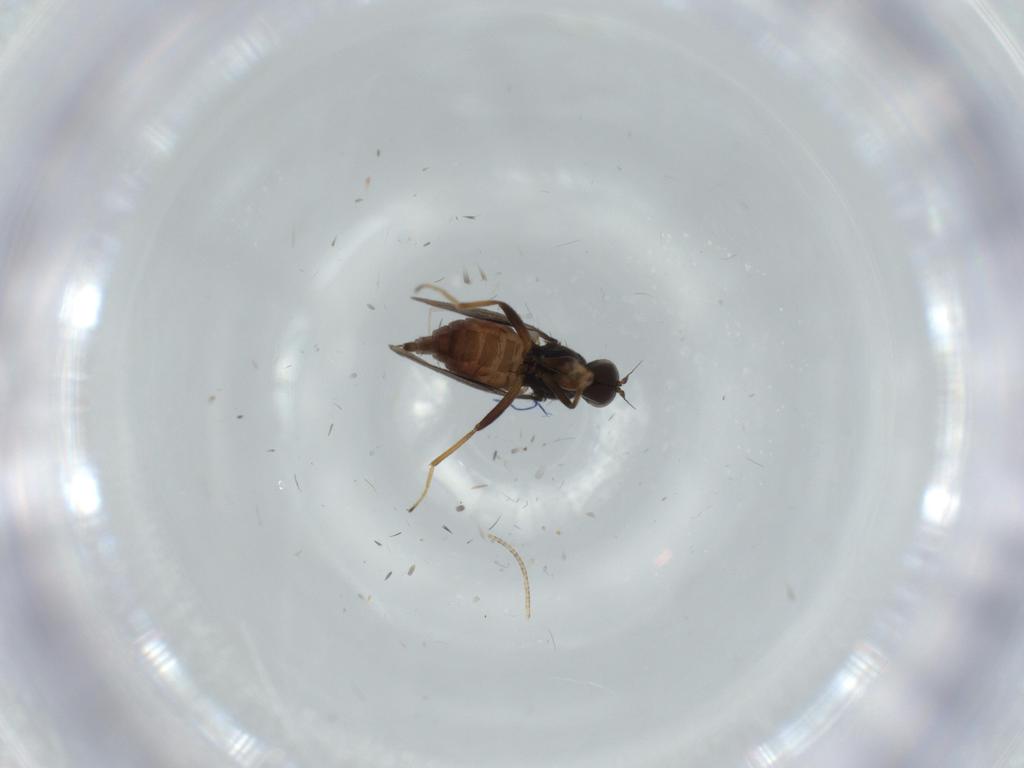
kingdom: Animalia
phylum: Arthropoda
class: Insecta
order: Diptera
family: Hybotidae
